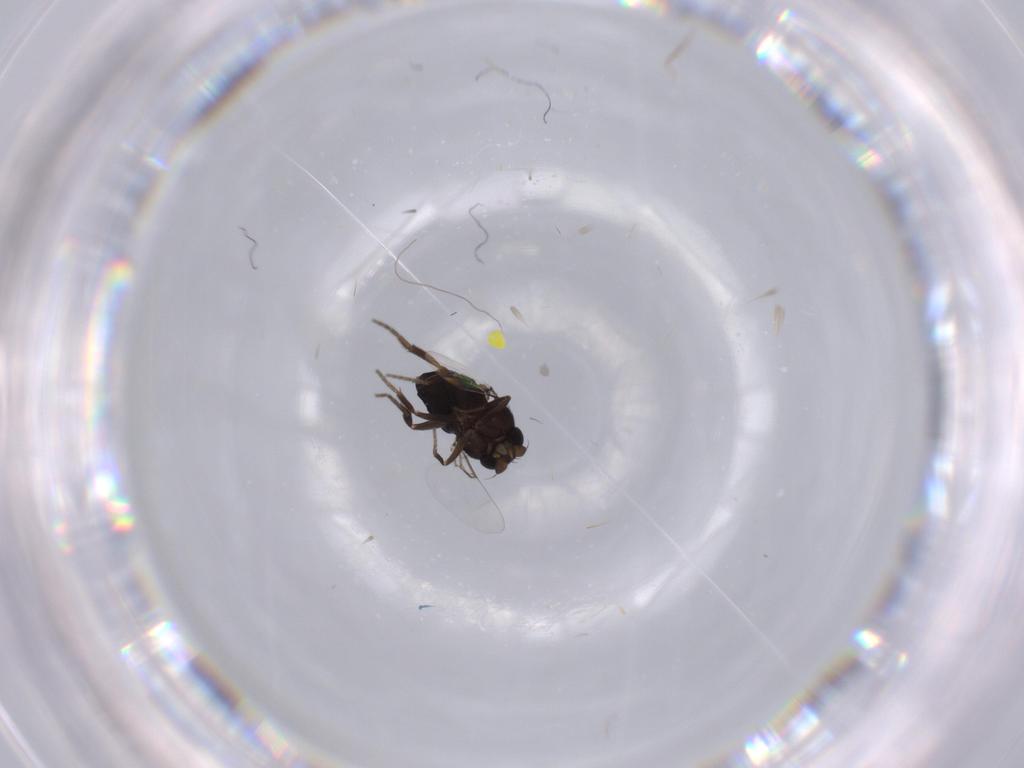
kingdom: Animalia
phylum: Arthropoda
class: Insecta
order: Diptera
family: Sciaridae
